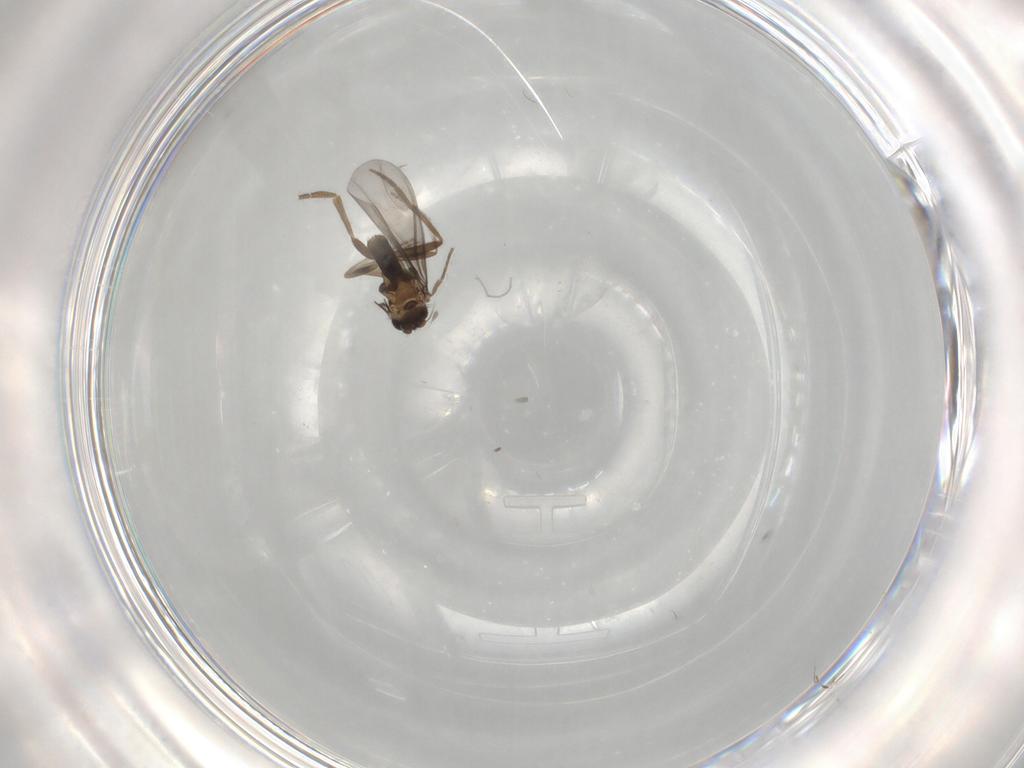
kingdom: Animalia
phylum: Arthropoda
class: Insecta
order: Diptera
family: Phoridae
